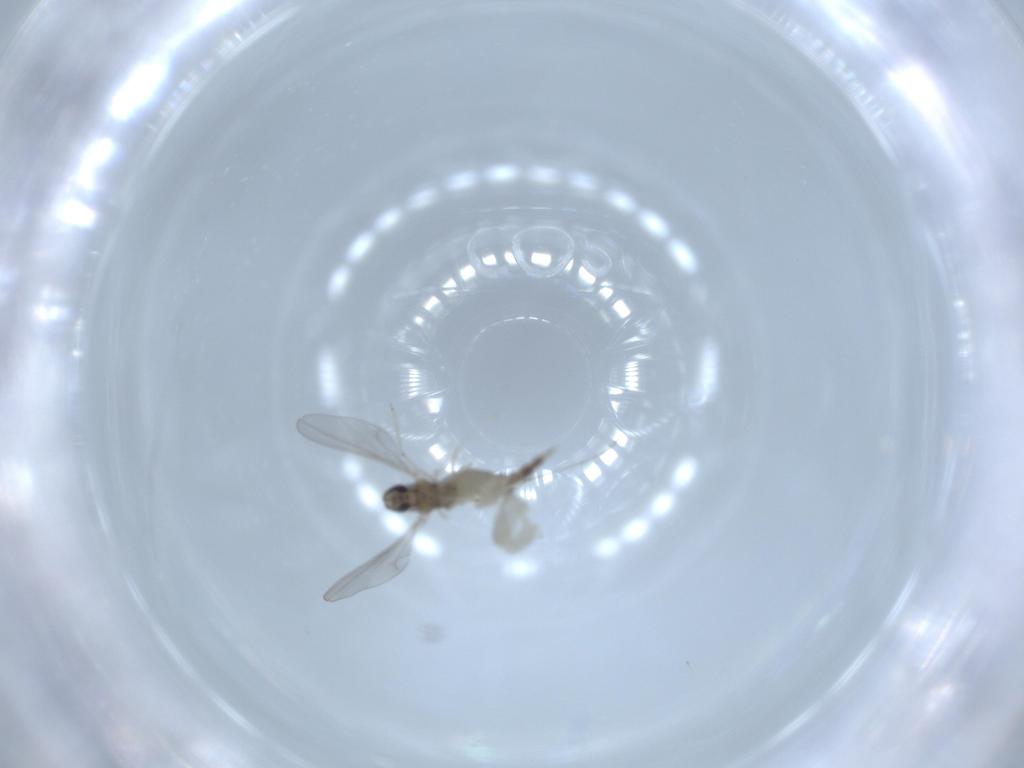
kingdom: Animalia
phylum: Arthropoda
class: Insecta
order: Diptera
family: Cecidomyiidae
